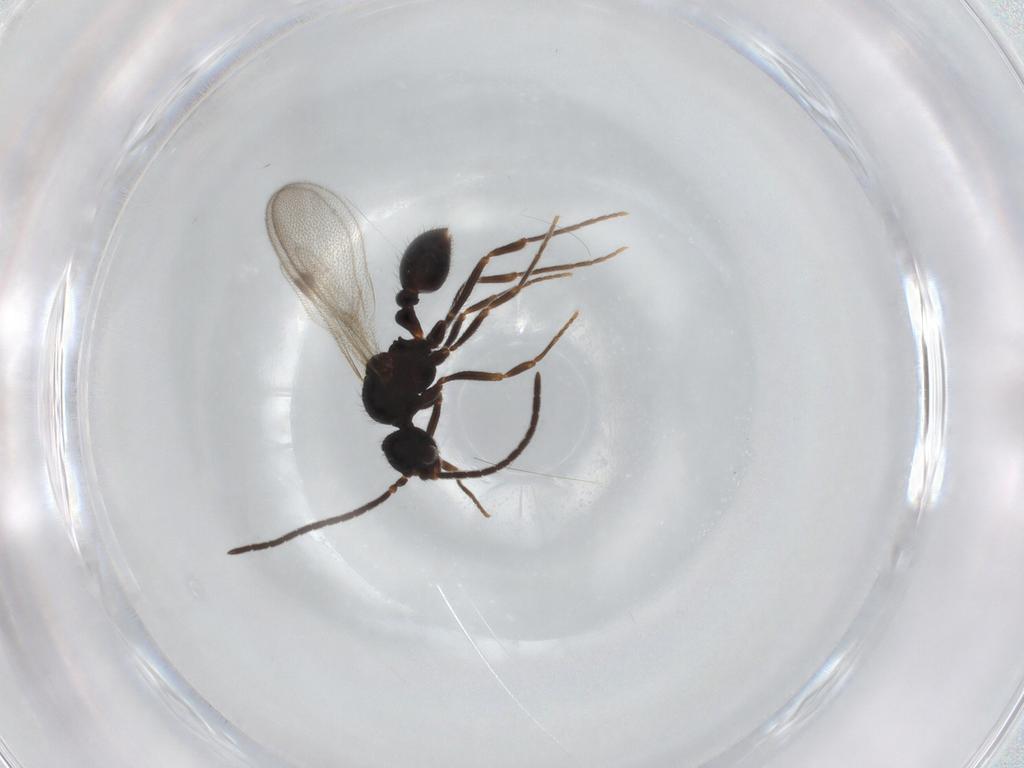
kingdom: Animalia
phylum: Arthropoda
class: Insecta
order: Hymenoptera
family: Formicidae
